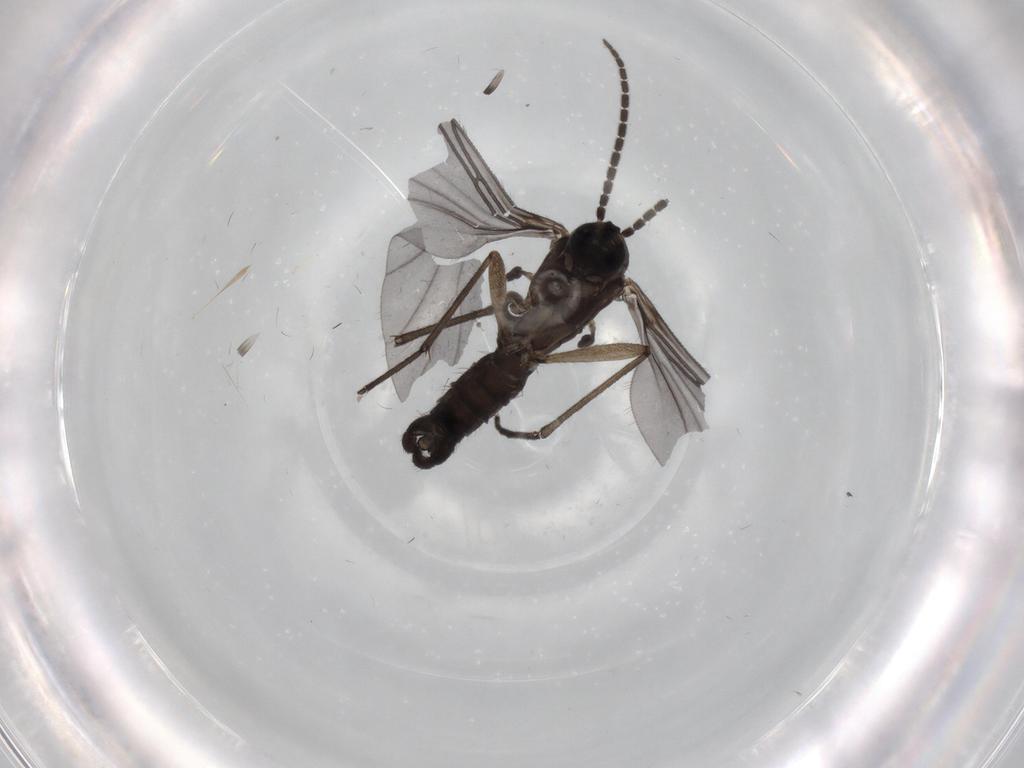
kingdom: Animalia
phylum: Arthropoda
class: Insecta
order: Diptera
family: Sciaridae
